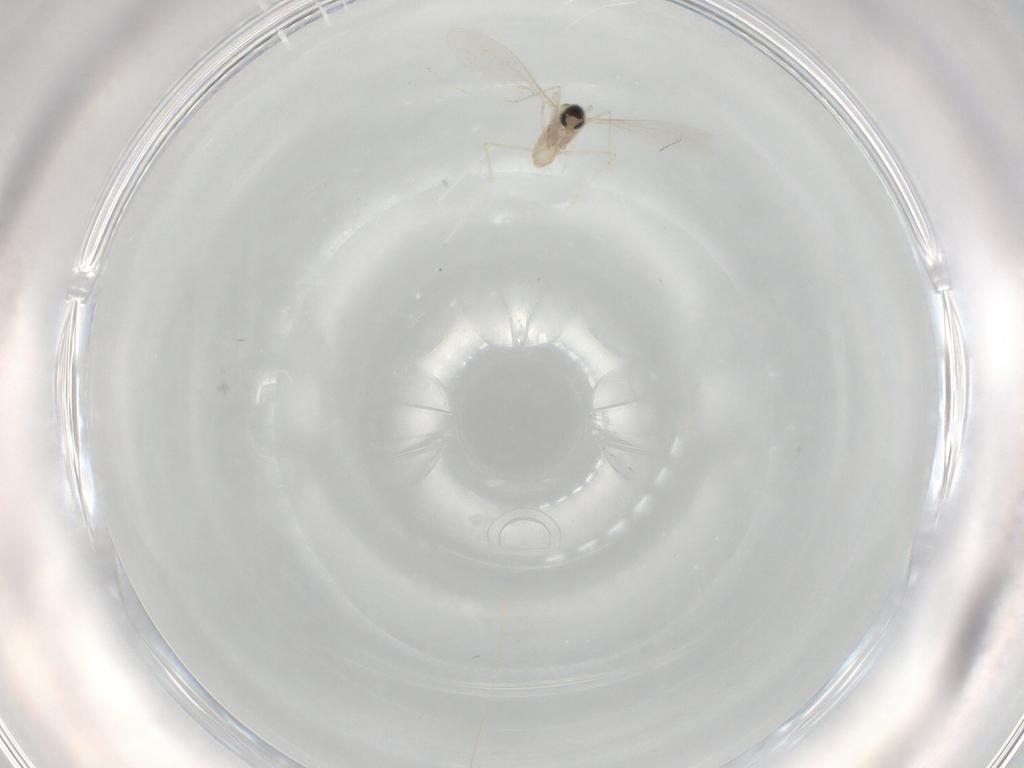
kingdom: Animalia
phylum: Arthropoda
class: Insecta
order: Diptera
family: Cecidomyiidae
